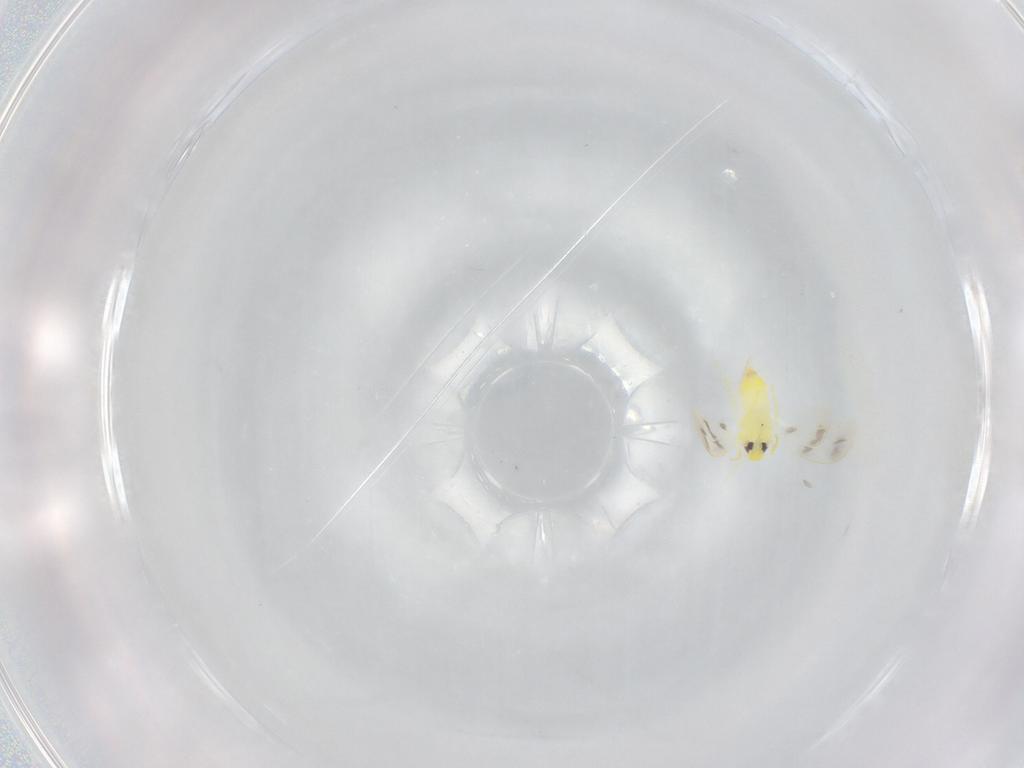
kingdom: Animalia
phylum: Arthropoda
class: Insecta
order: Hemiptera
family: Aleyrodidae
